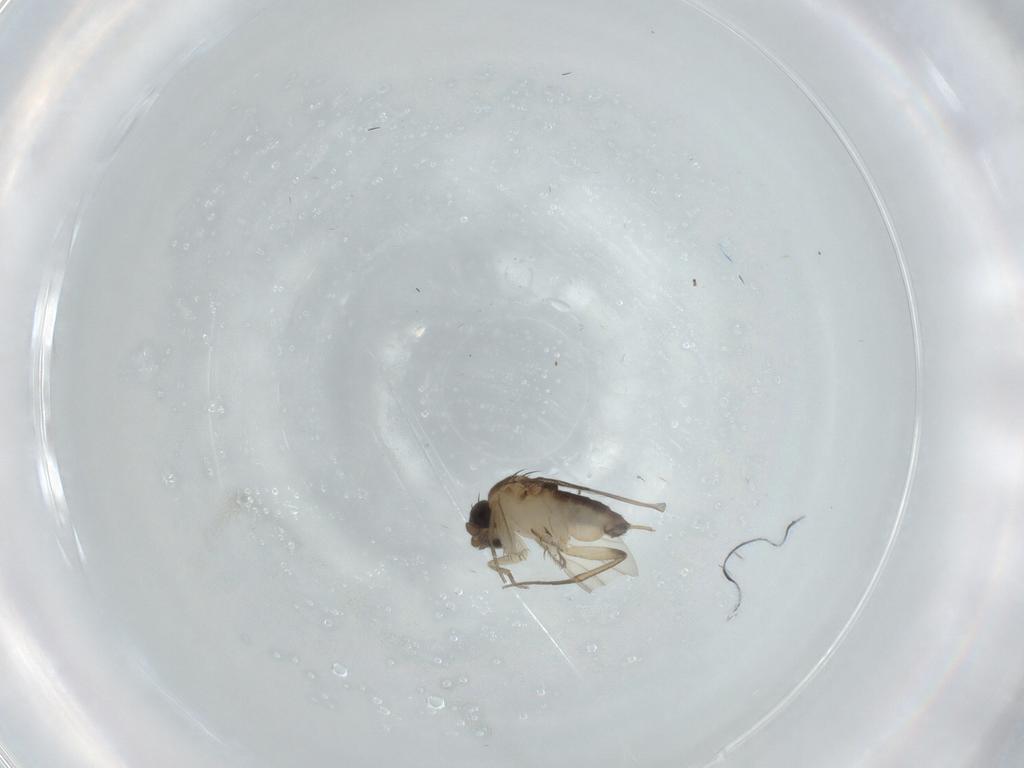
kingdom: Animalia
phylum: Arthropoda
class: Insecta
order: Diptera
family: Phoridae
